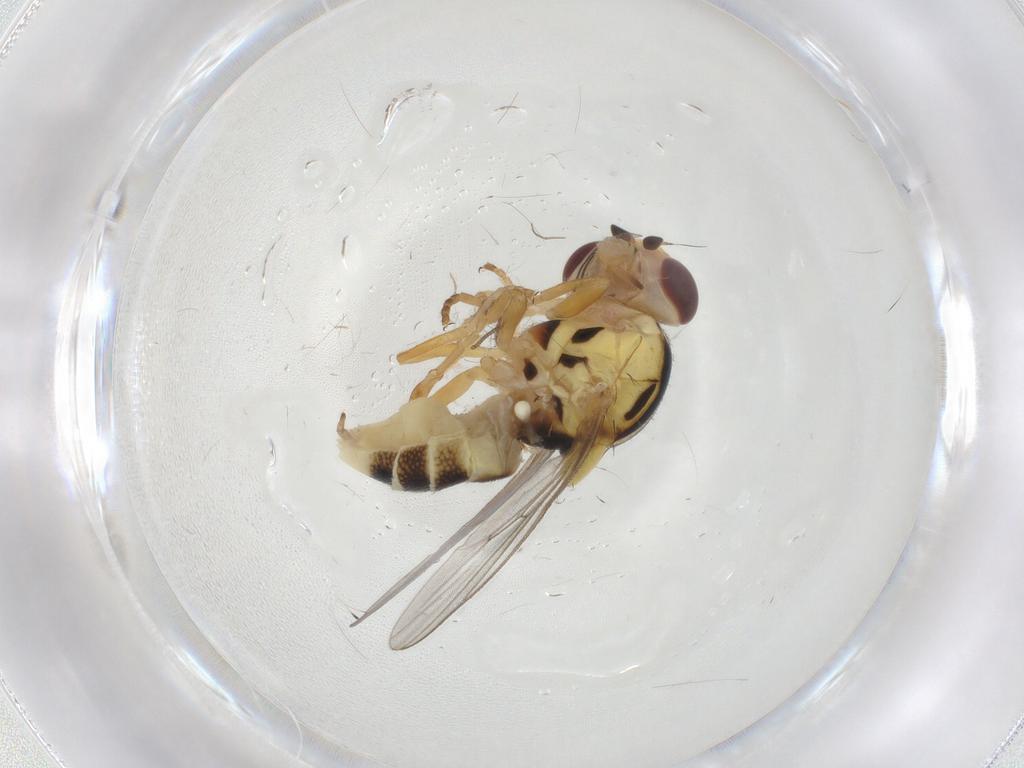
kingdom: Animalia
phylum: Arthropoda
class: Insecta
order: Diptera
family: Chloropidae
